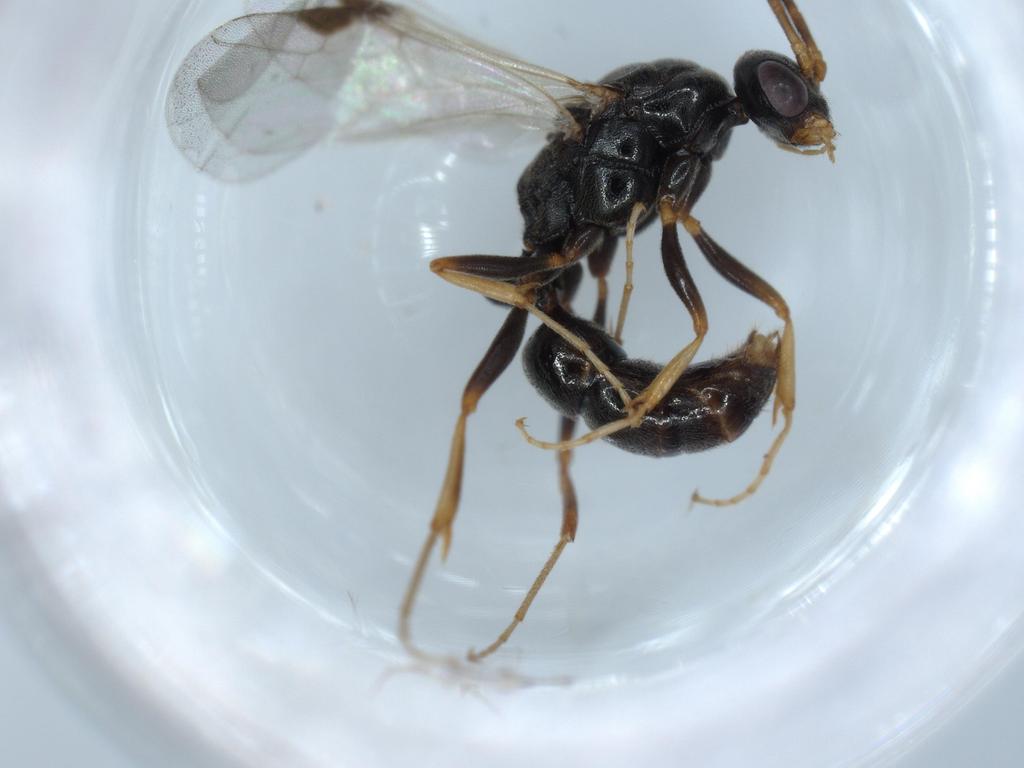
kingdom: Animalia
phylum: Arthropoda
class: Insecta
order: Hymenoptera
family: Formicidae
